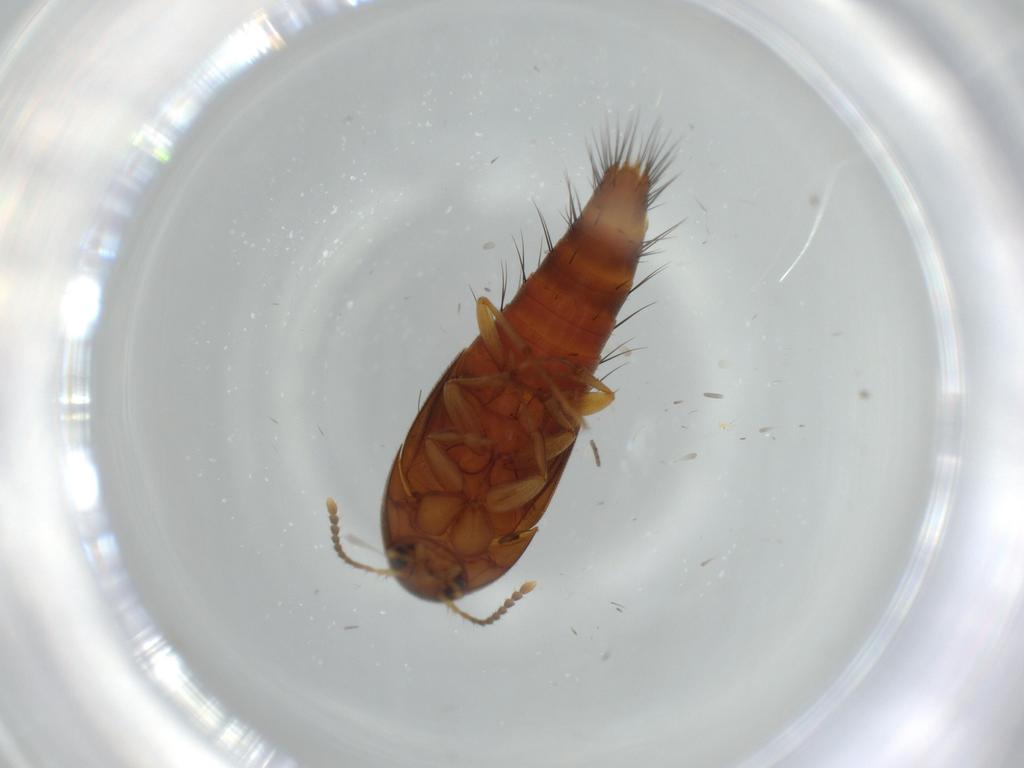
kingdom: Animalia
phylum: Arthropoda
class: Insecta
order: Coleoptera
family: Staphylinidae
